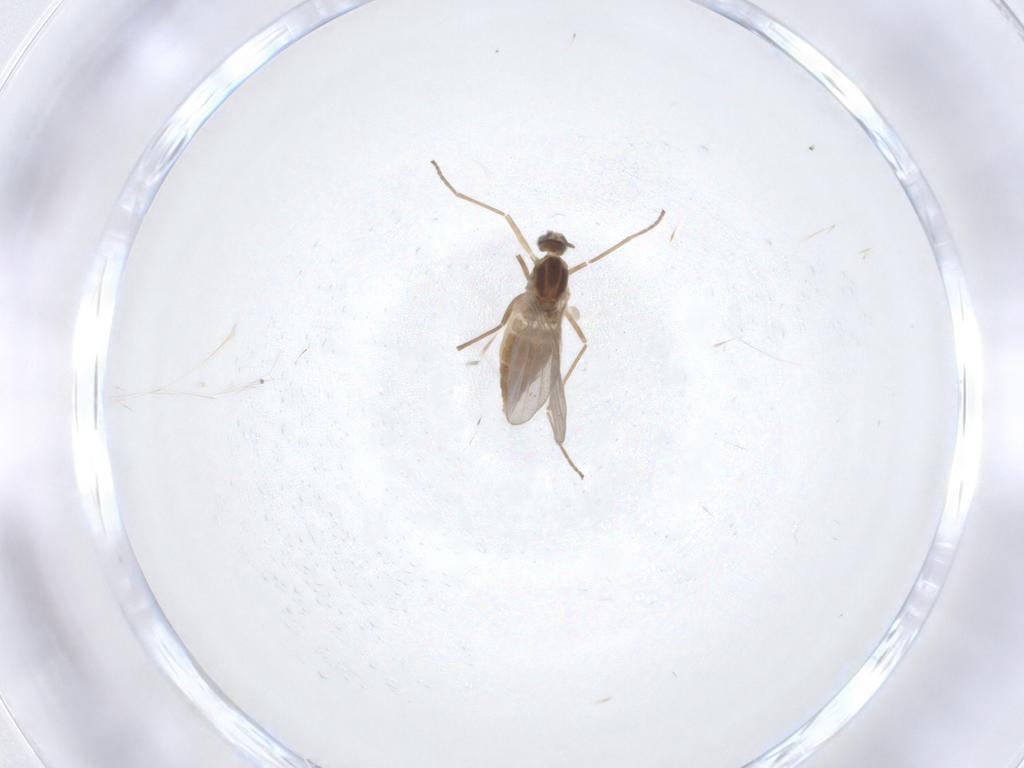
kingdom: Animalia
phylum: Arthropoda
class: Insecta
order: Diptera
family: Cecidomyiidae
